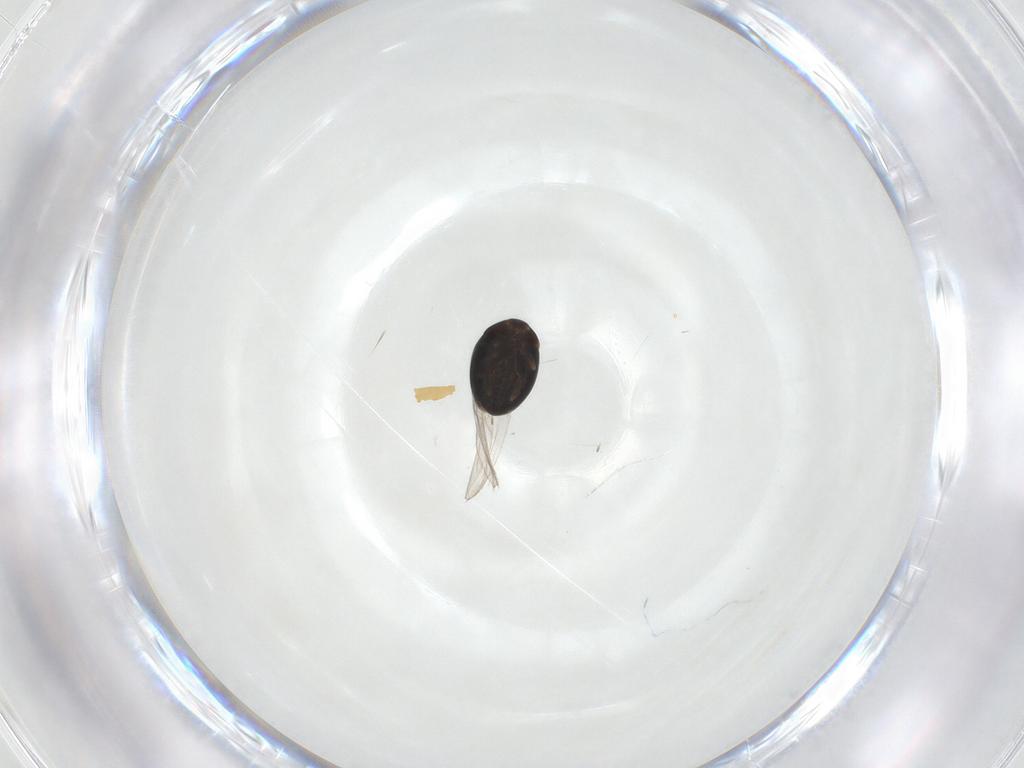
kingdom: Animalia
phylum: Arthropoda
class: Insecta
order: Coleoptera
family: Corylophidae
